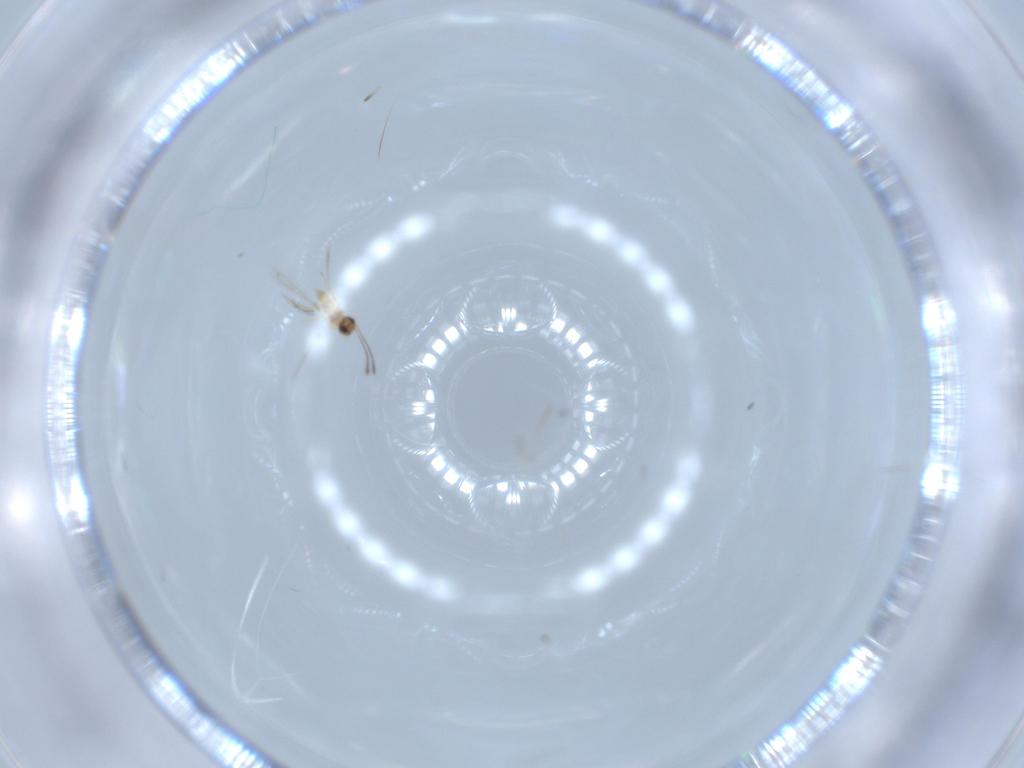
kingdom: Animalia
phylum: Arthropoda
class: Insecta
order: Hymenoptera
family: Mymaridae
